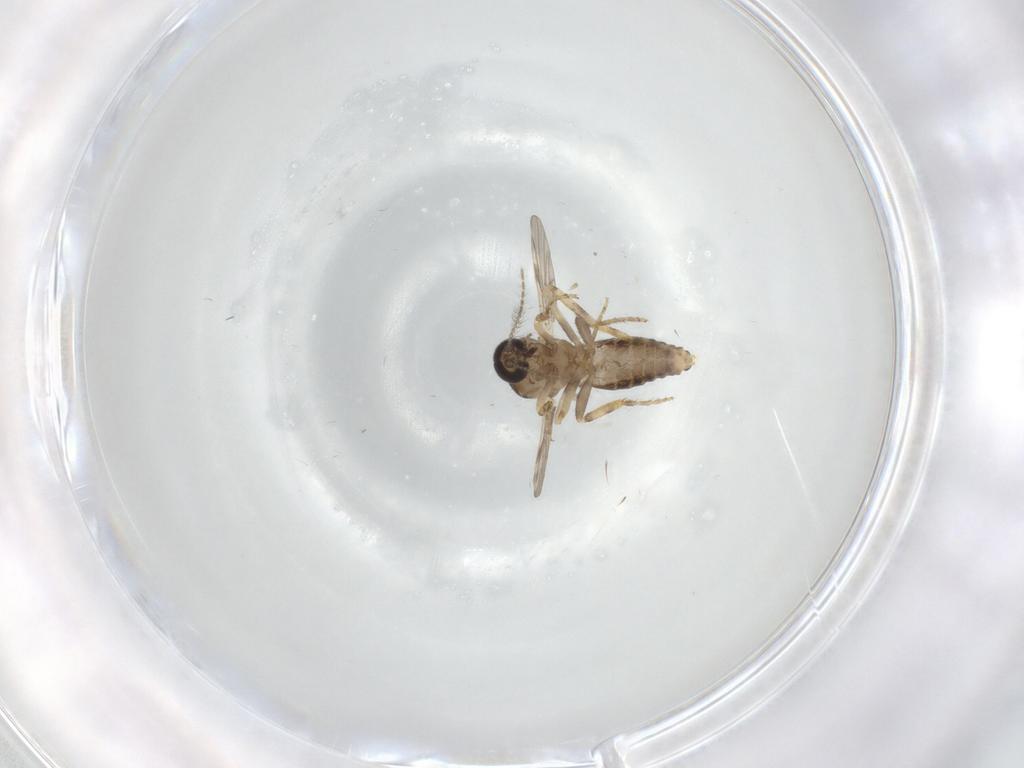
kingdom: Animalia
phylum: Arthropoda
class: Insecta
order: Diptera
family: Ceratopogonidae
